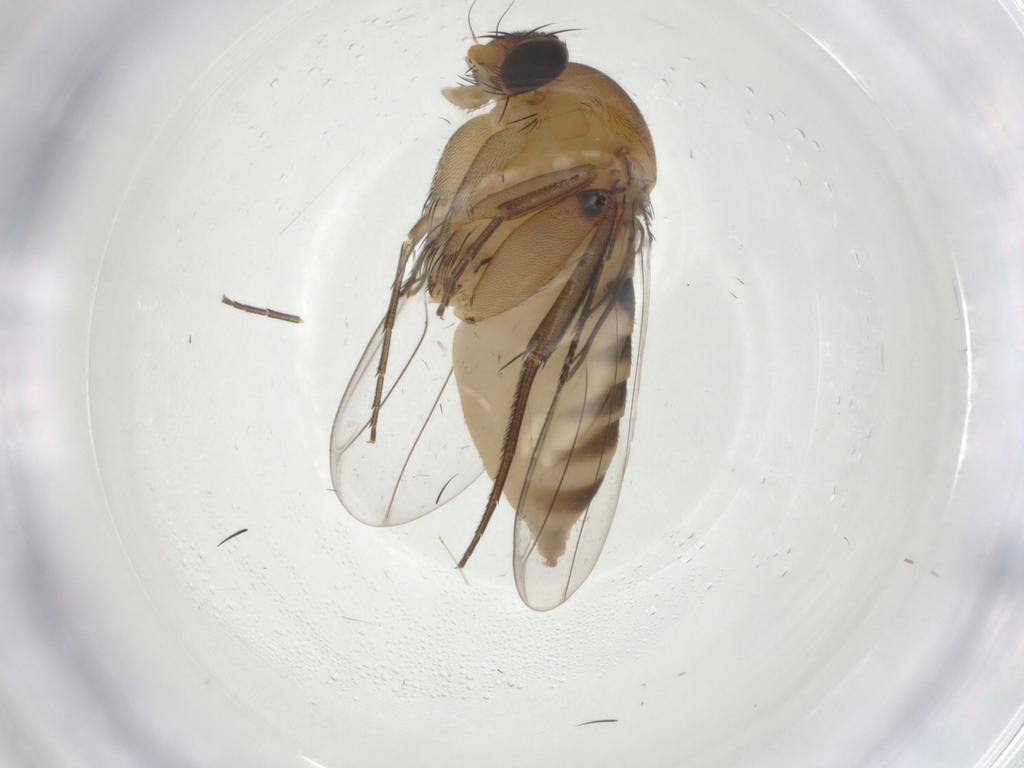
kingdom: Animalia
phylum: Arthropoda
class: Insecta
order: Diptera
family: Phoridae
